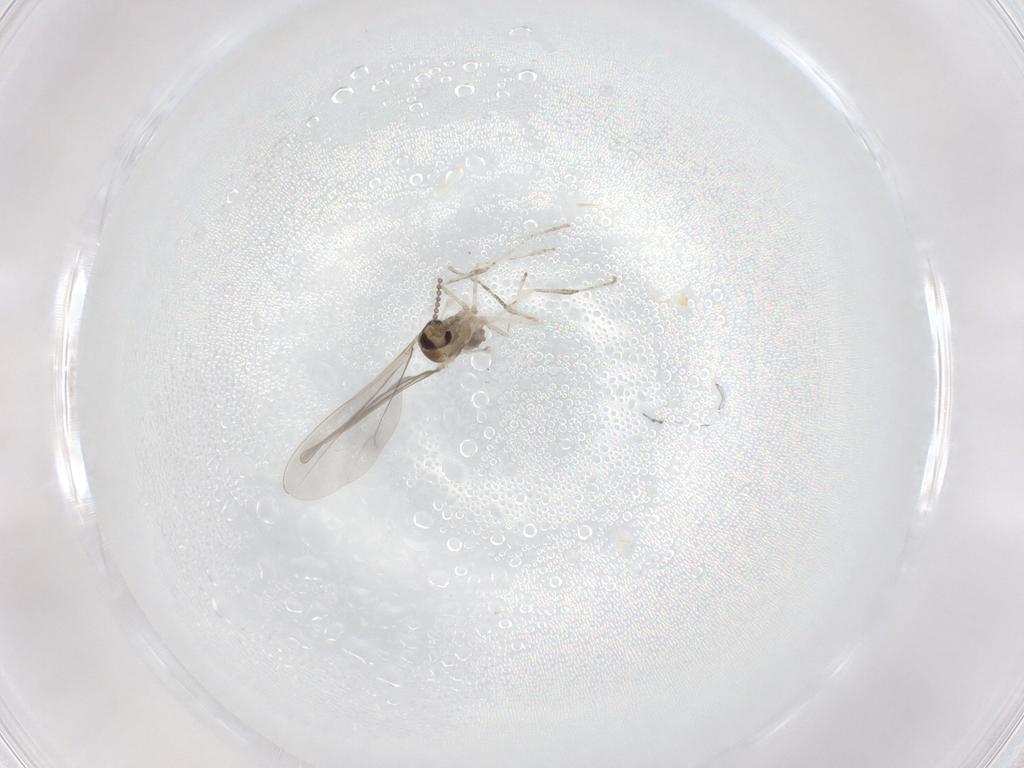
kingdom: Animalia
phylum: Arthropoda
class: Insecta
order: Diptera
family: Cecidomyiidae
